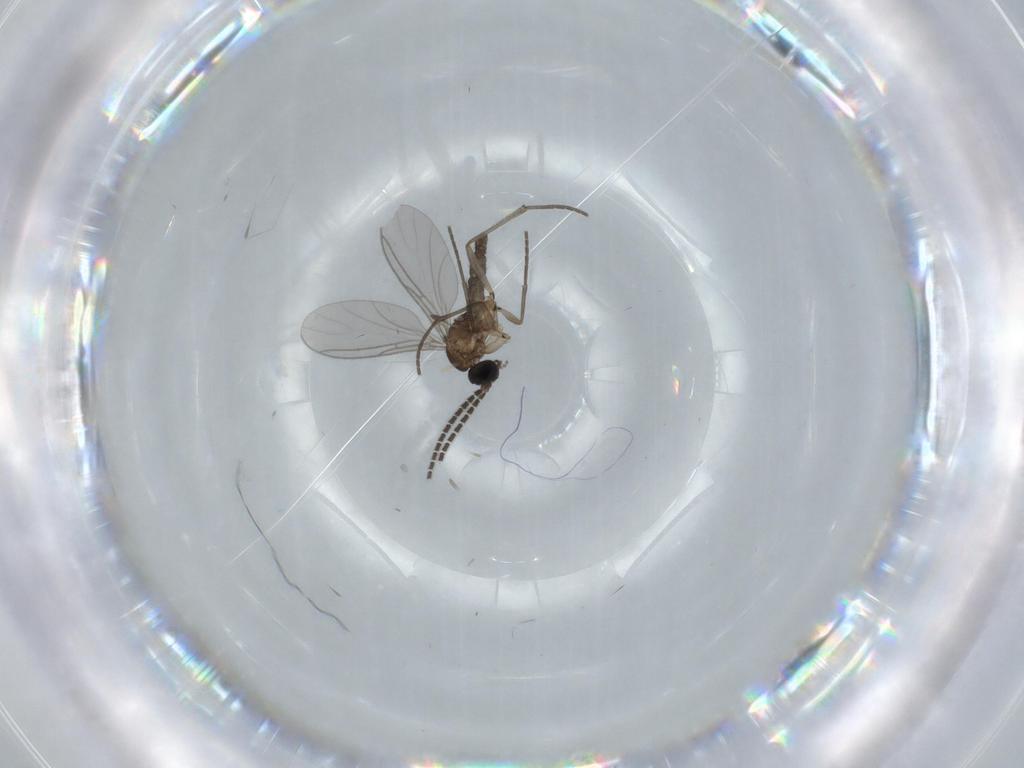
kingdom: Animalia
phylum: Arthropoda
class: Insecta
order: Diptera
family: Sciaridae
